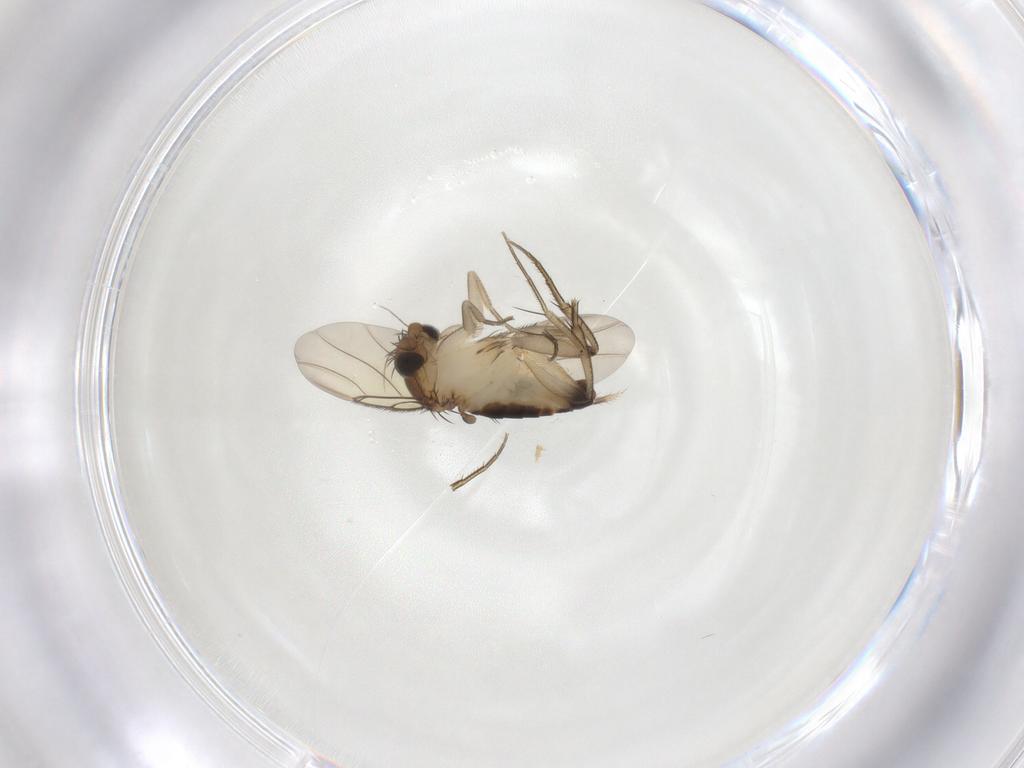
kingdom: Animalia
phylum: Arthropoda
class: Insecta
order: Diptera
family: Phoridae
